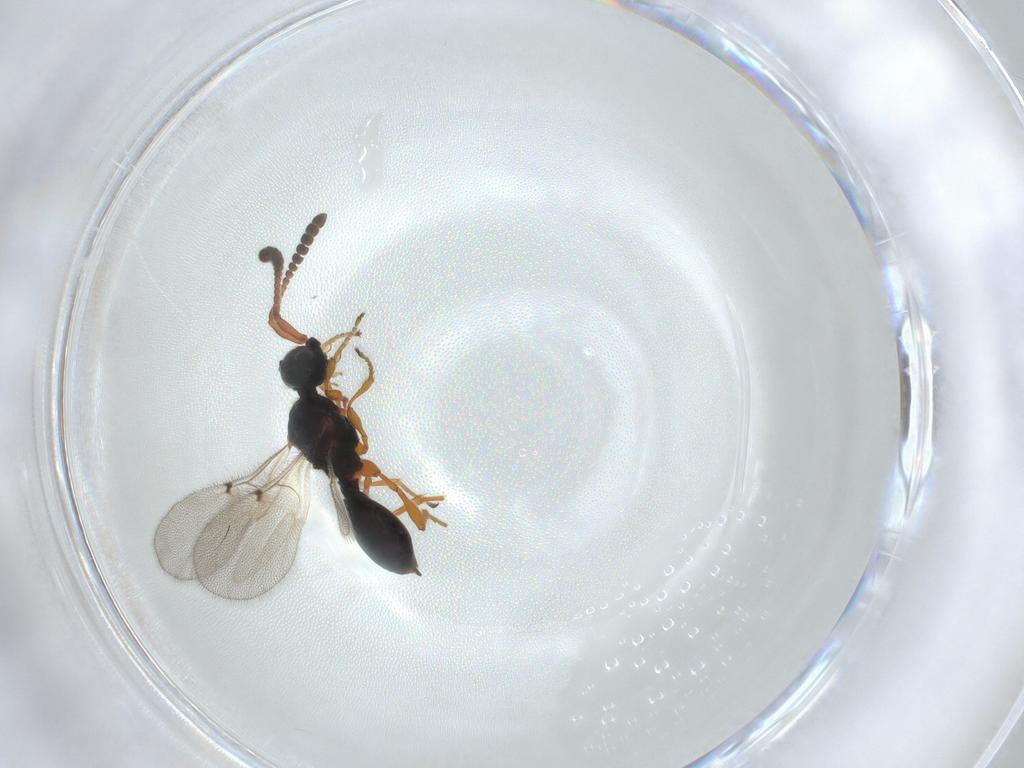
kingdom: Animalia
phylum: Arthropoda
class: Insecta
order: Hymenoptera
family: Diapriidae
